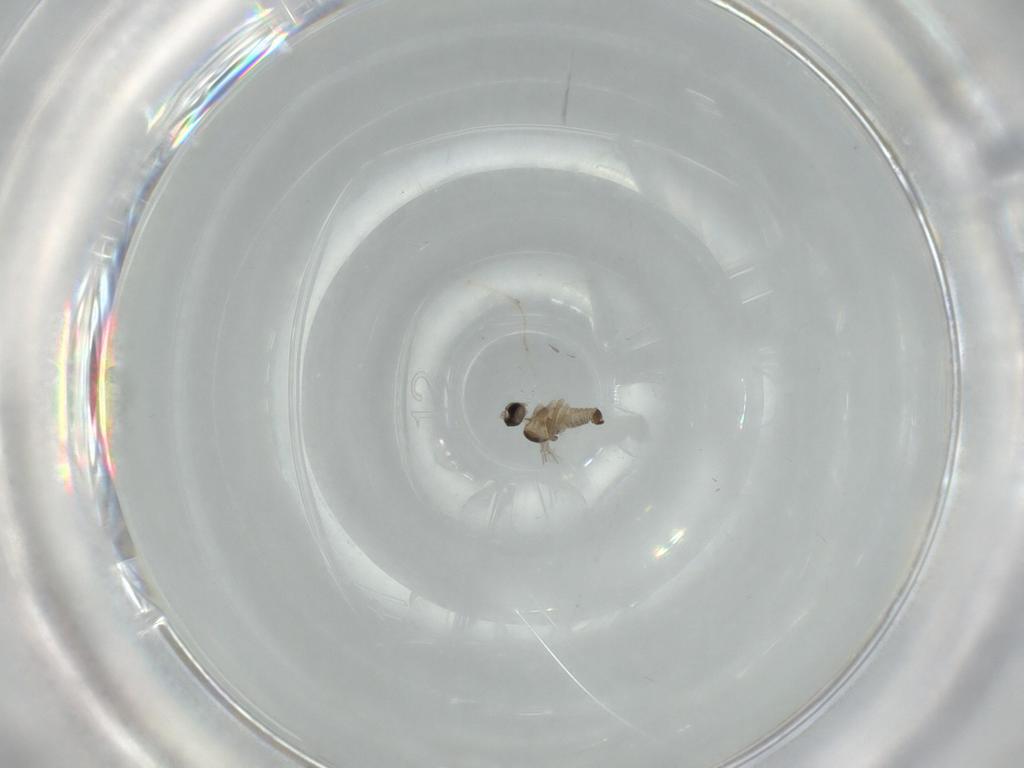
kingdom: Animalia
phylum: Arthropoda
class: Insecta
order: Diptera
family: Cecidomyiidae
